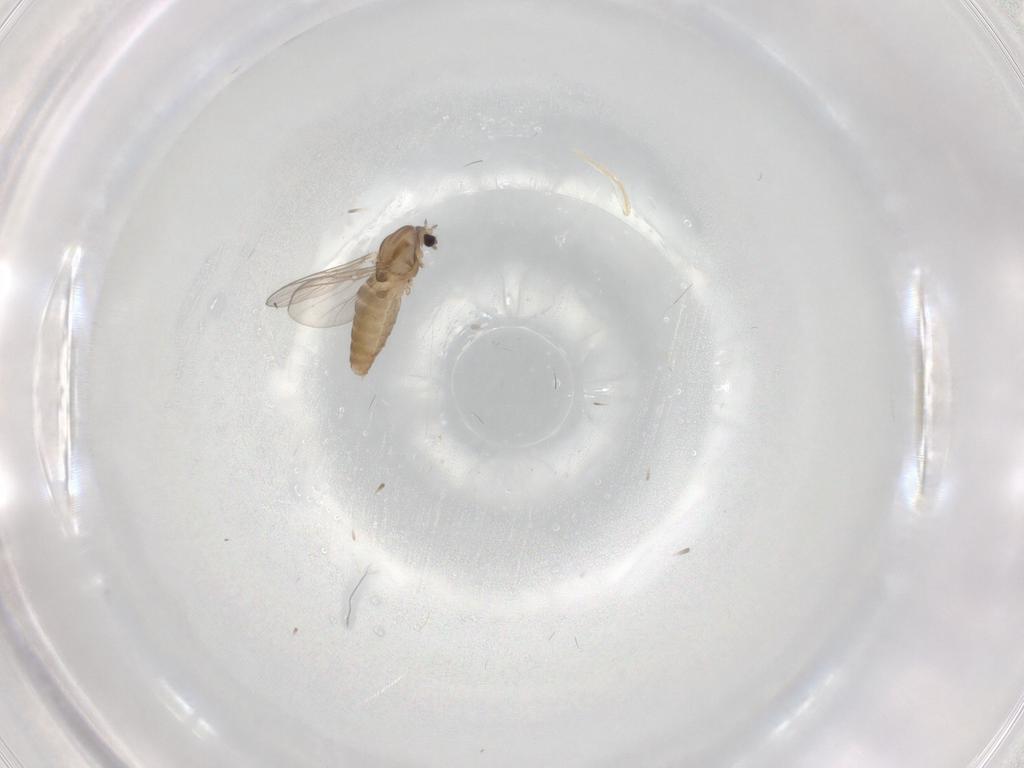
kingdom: Animalia
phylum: Arthropoda
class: Insecta
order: Diptera
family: Chironomidae
